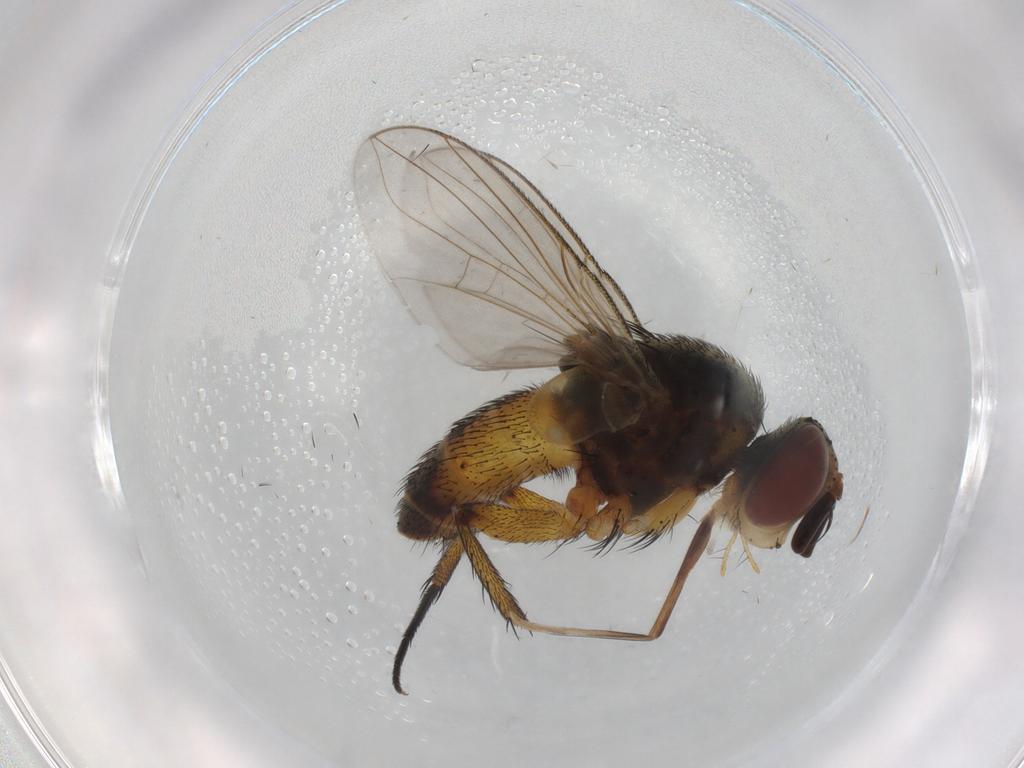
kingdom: Animalia
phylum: Arthropoda
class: Insecta
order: Diptera
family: Tachinidae
